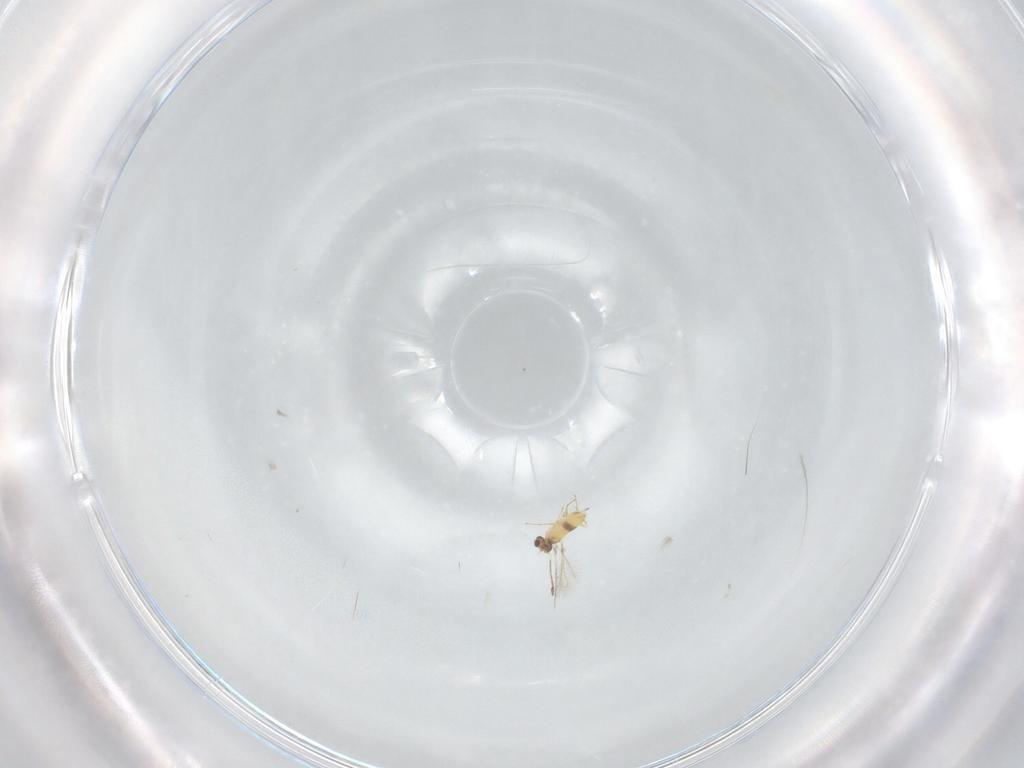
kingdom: Animalia
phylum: Arthropoda
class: Insecta
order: Hymenoptera
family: Mymaridae
